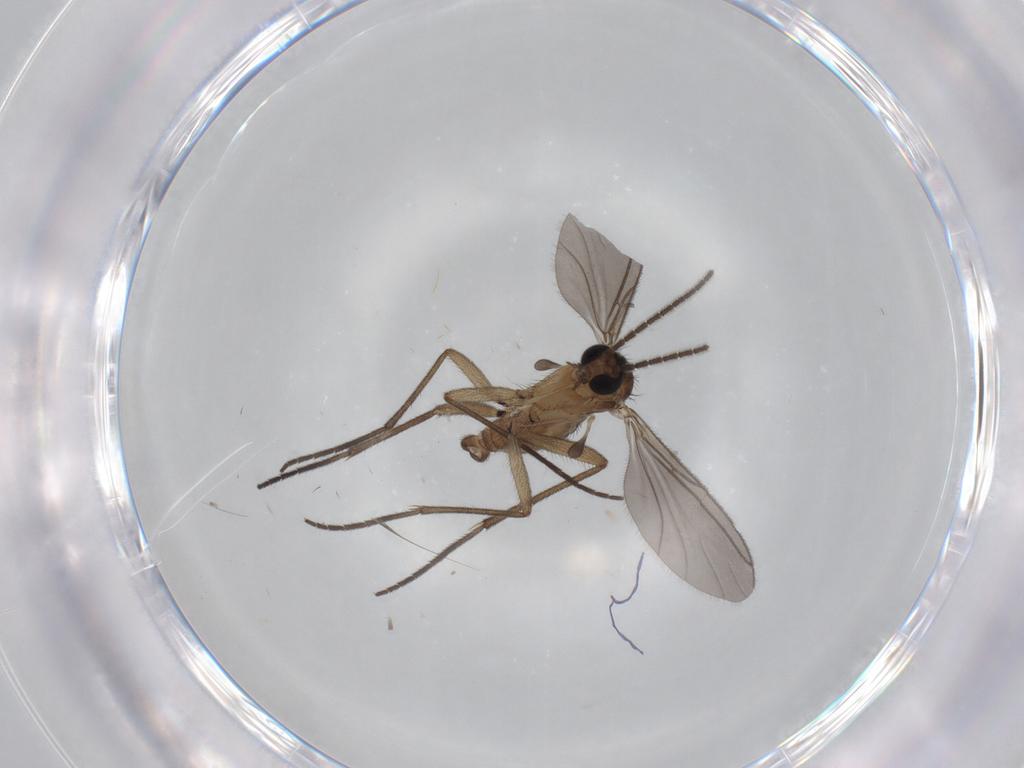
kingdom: Animalia
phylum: Arthropoda
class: Insecta
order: Diptera
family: Sciaridae
